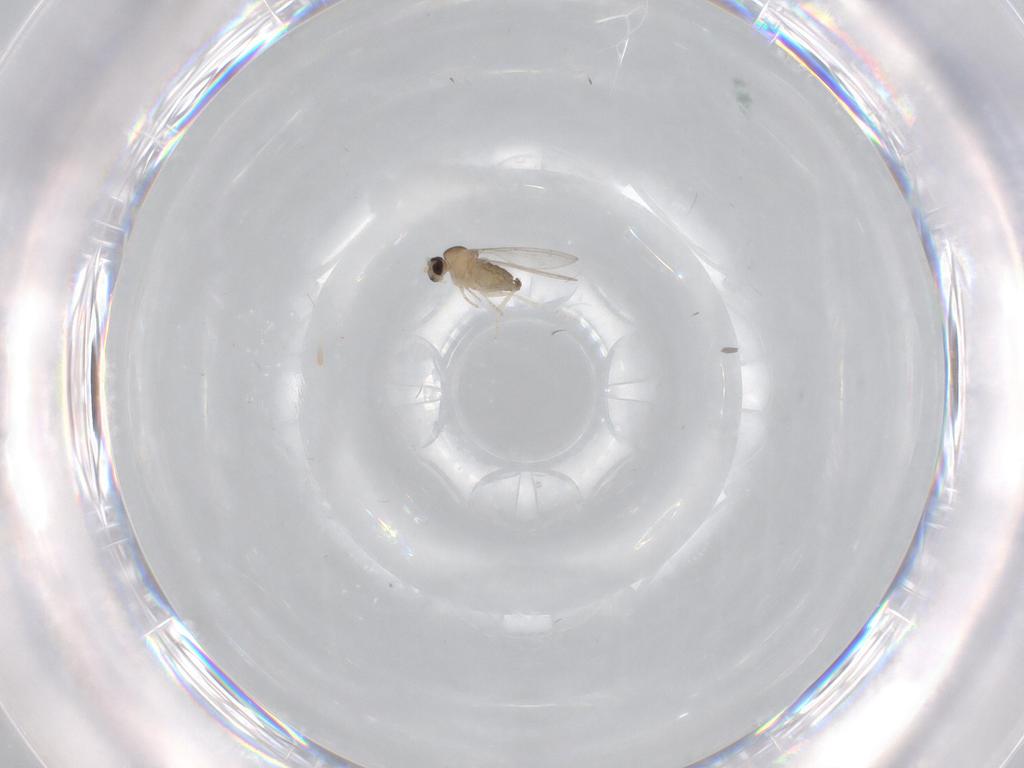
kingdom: Animalia
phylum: Arthropoda
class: Insecta
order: Diptera
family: Cecidomyiidae
